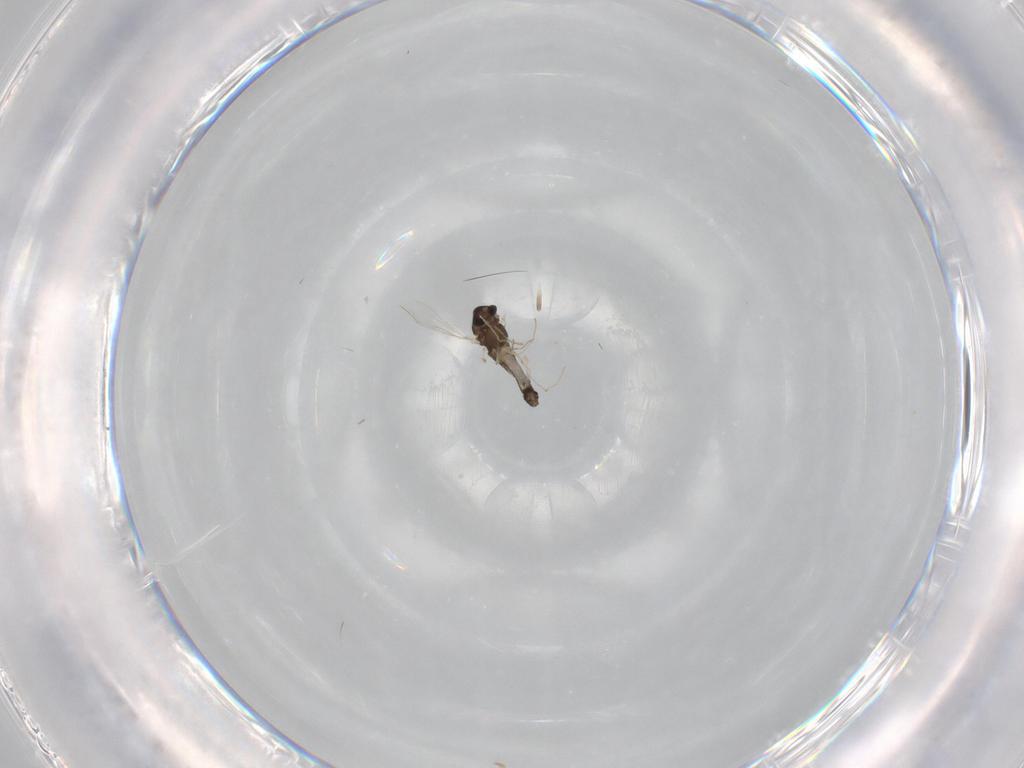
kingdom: Animalia
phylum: Arthropoda
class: Insecta
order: Diptera
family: Chironomidae
